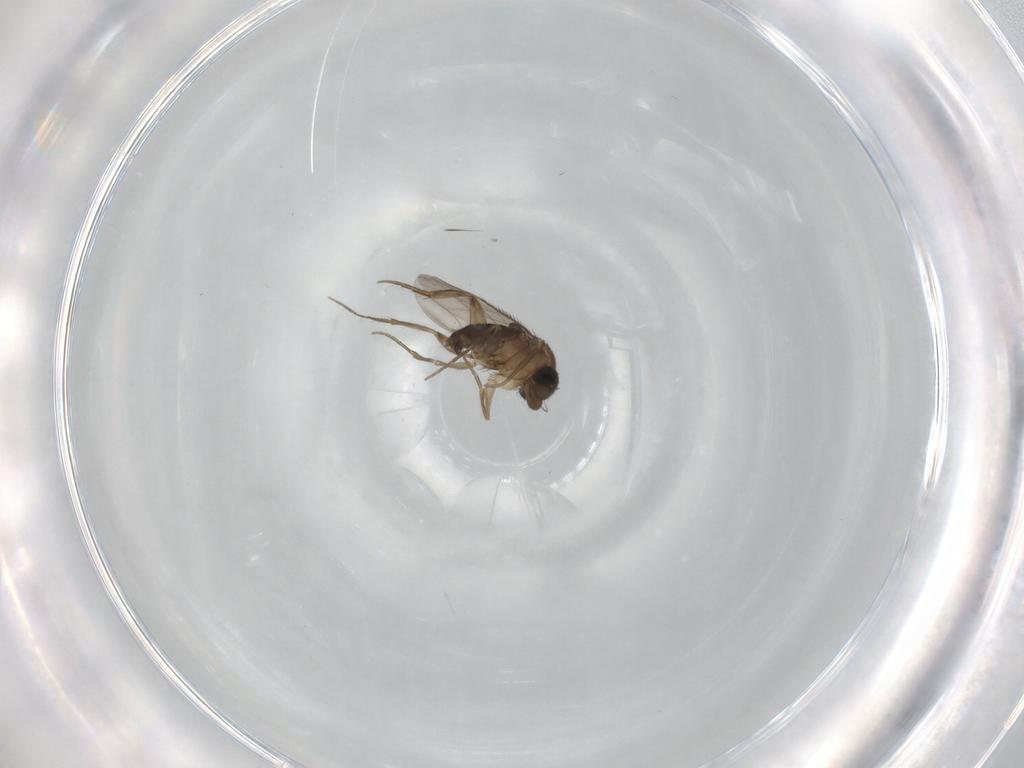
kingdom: Animalia
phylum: Arthropoda
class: Insecta
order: Diptera
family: Phoridae
